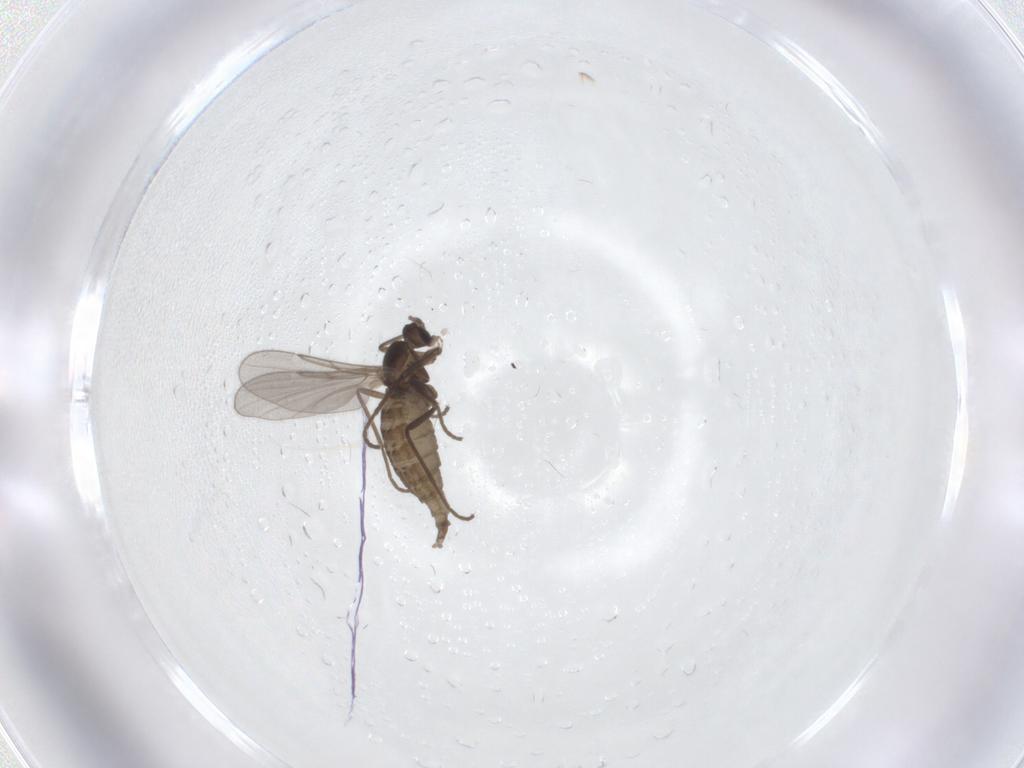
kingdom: Animalia
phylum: Arthropoda
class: Insecta
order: Diptera
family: Cecidomyiidae
